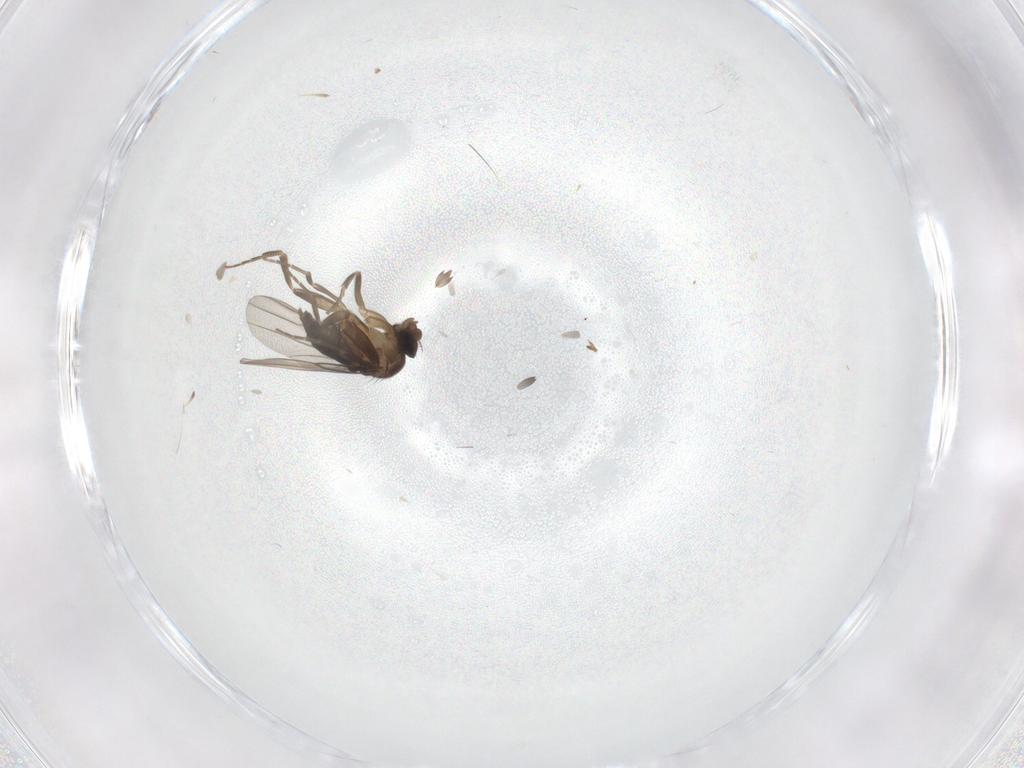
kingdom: Animalia
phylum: Arthropoda
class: Insecta
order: Diptera
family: Phoridae
